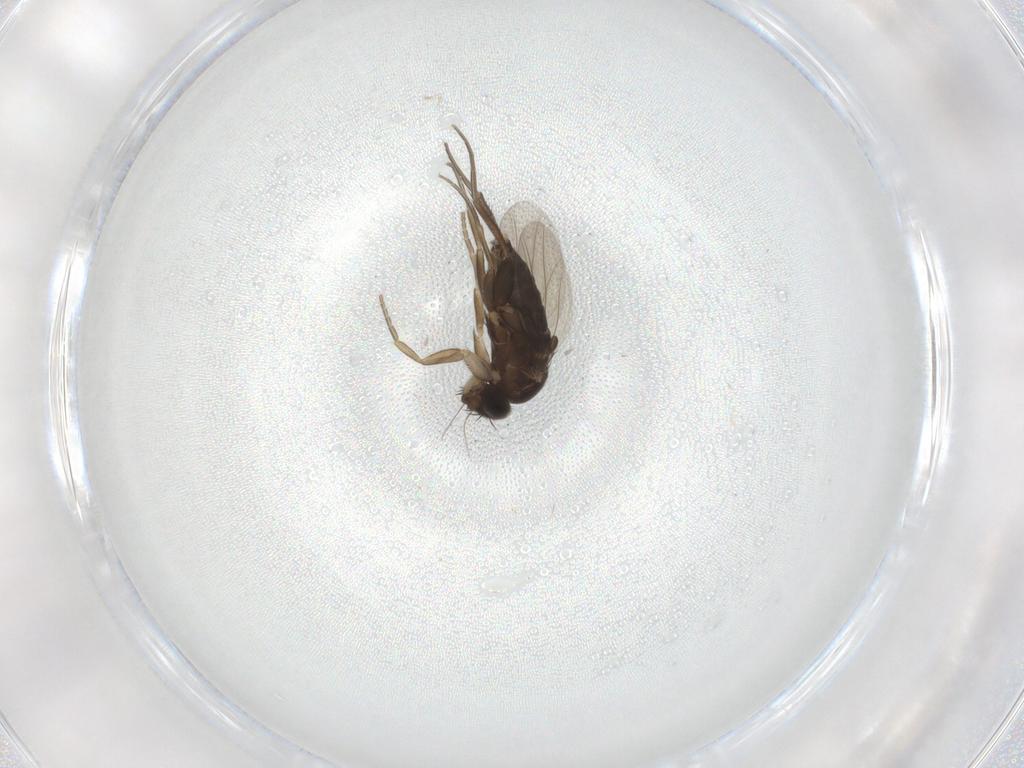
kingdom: Animalia
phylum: Arthropoda
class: Insecta
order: Diptera
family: Phoridae
